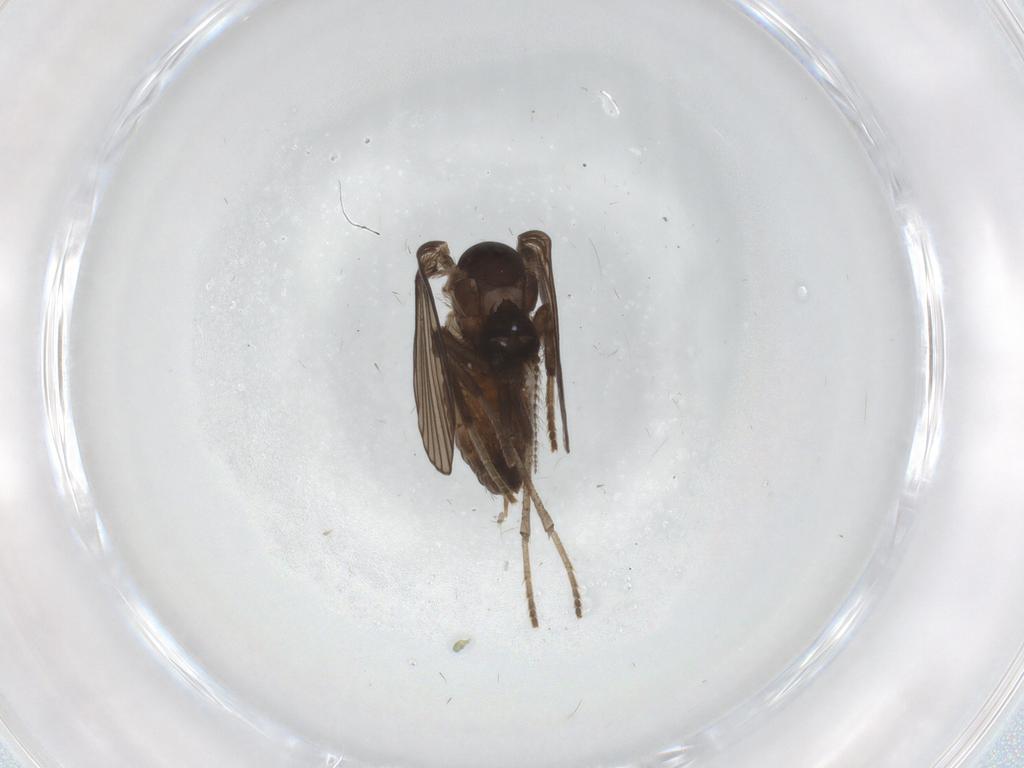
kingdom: Animalia
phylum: Arthropoda
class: Insecta
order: Diptera
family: Psychodidae
